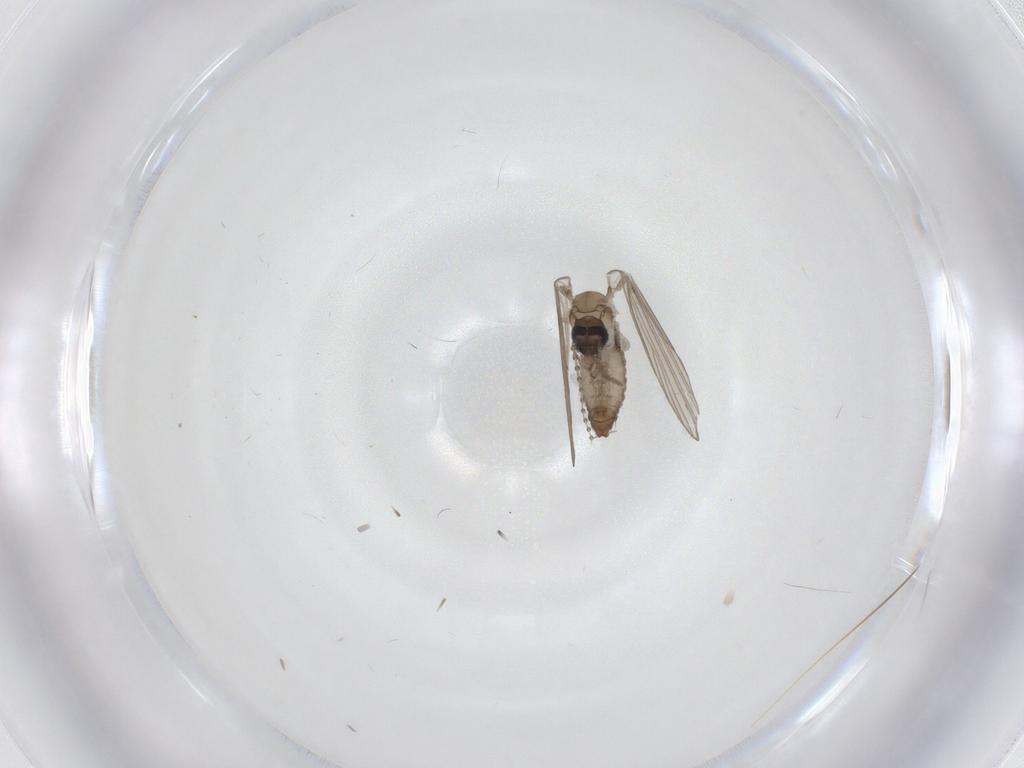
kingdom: Animalia
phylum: Arthropoda
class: Insecta
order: Diptera
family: Psychodidae
